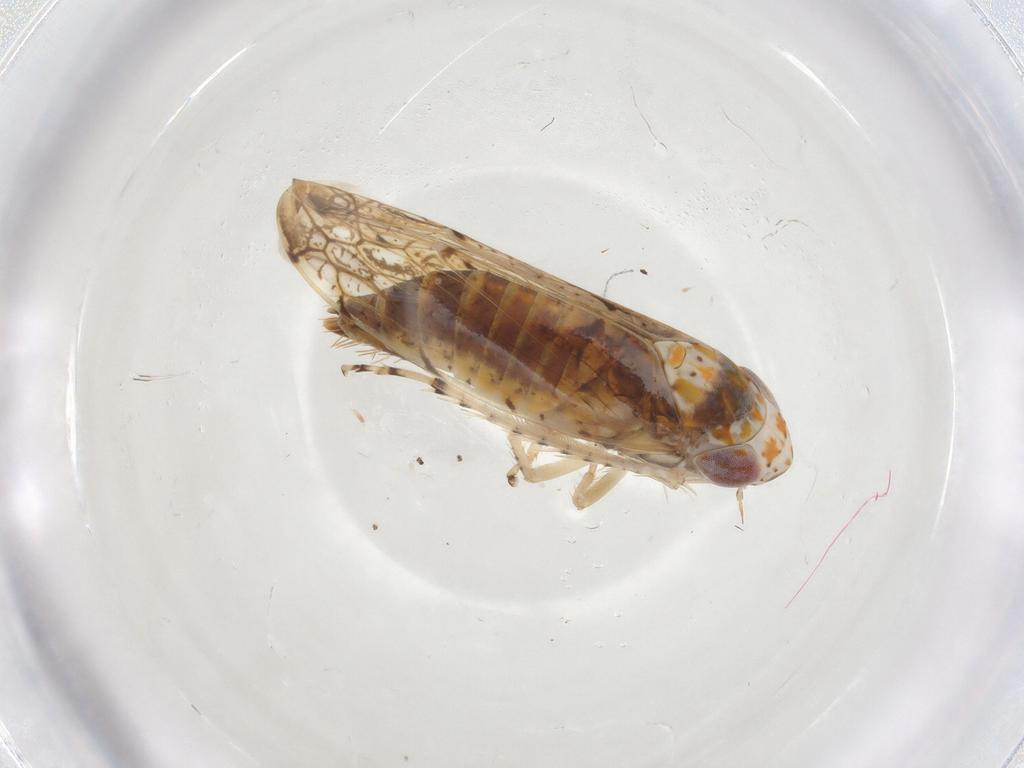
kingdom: Animalia
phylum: Arthropoda
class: Insecta
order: Hemiptera
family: Cicadellidae
